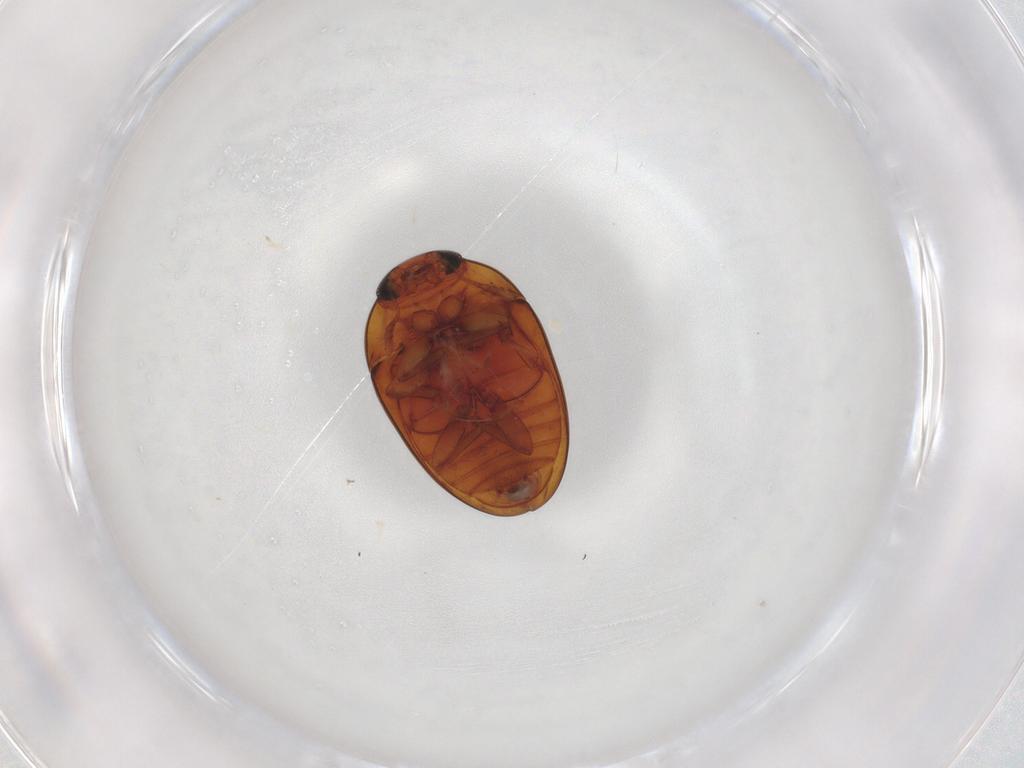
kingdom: Animalia
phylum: Arthropoda
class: Insecta
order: Coleoptera
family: Phalacridae
